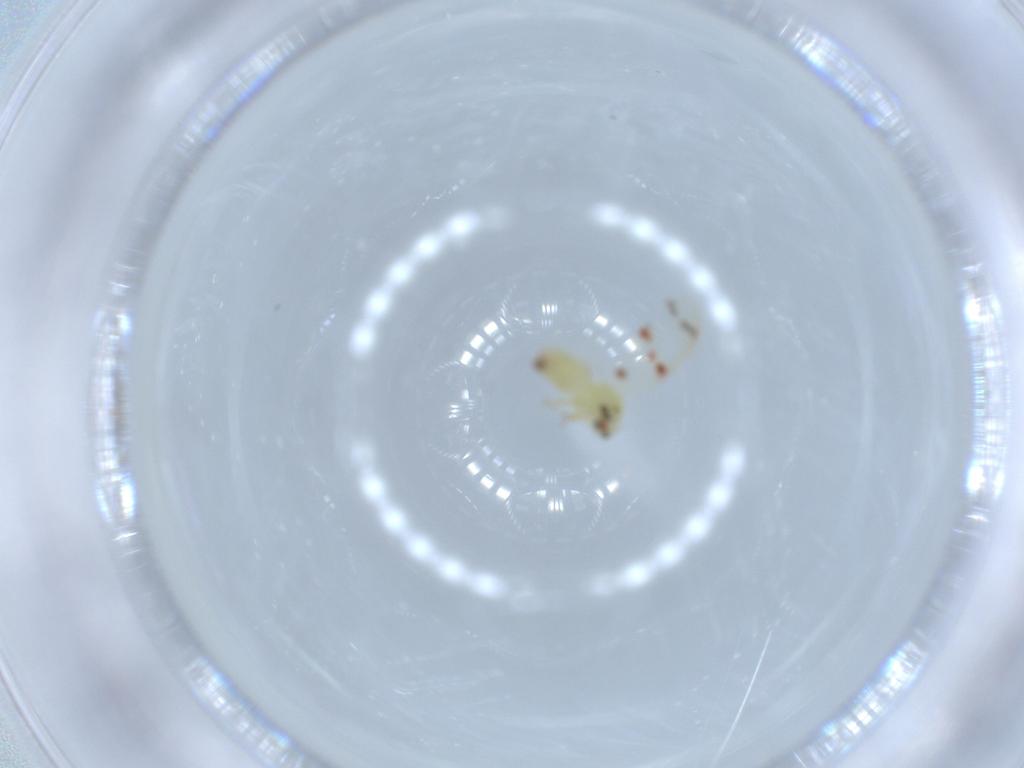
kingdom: Animalia
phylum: Arthropoda
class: Insecta
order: Hemiptera
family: Aleyrodidae
